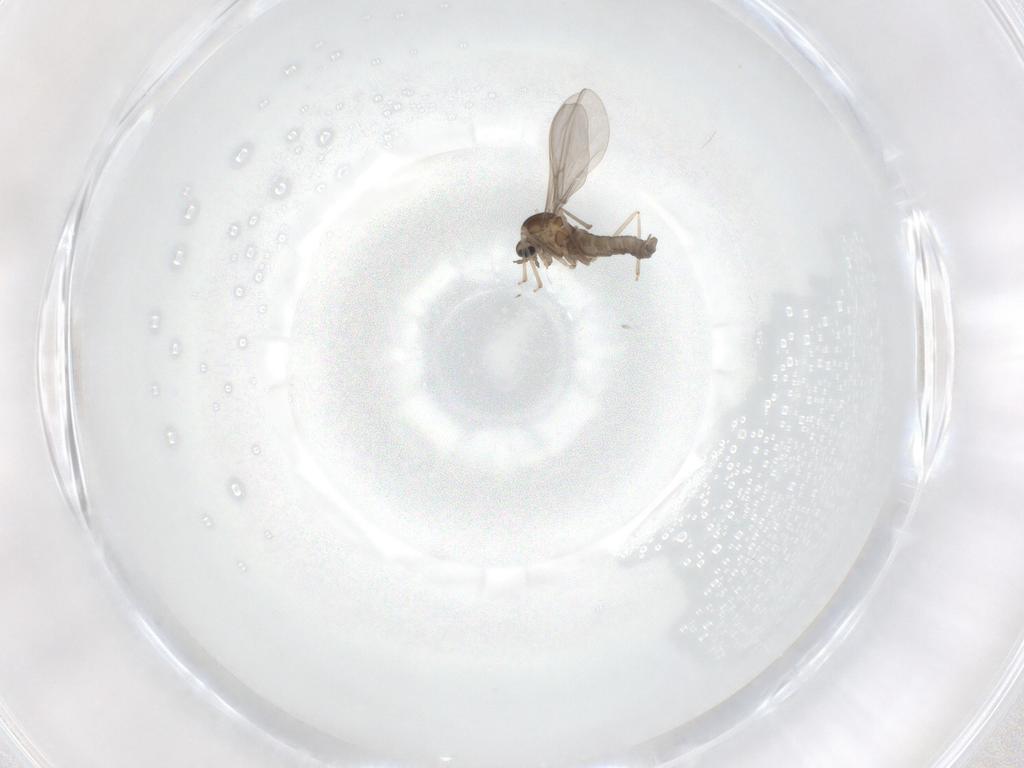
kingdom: Animalia
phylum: Arthropoda
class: Insecta
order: Diptera
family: Cecidomyiidae
